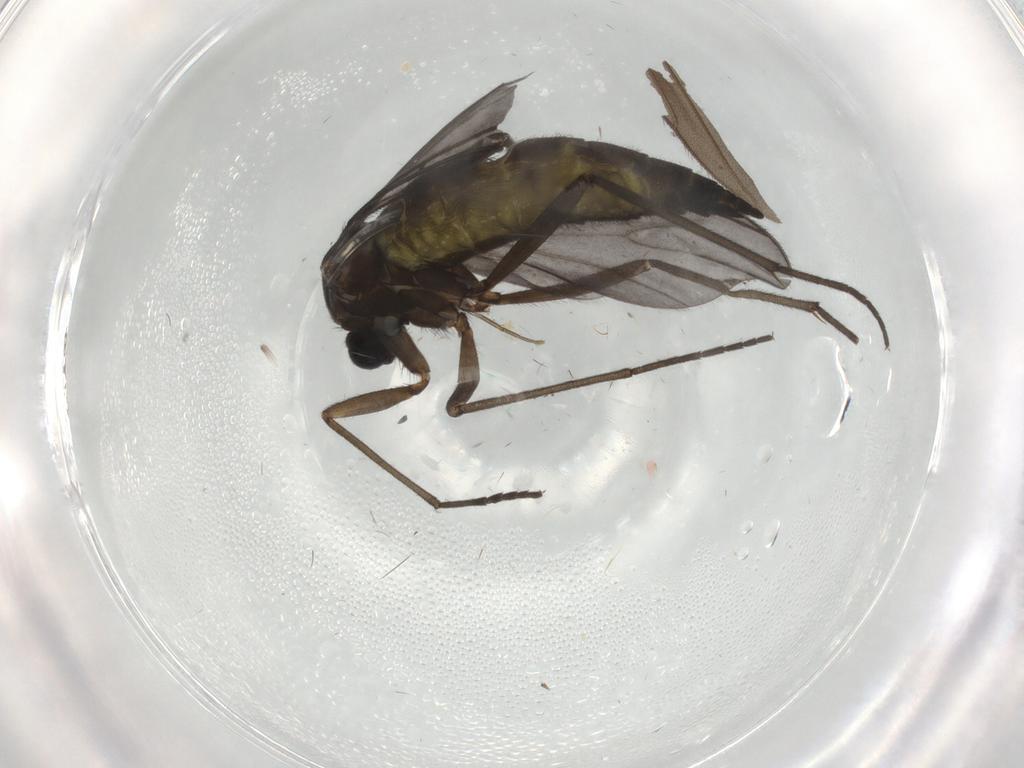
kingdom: Animalia
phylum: Arthropoda
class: Insecta
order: Diptera
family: Sciaridae
